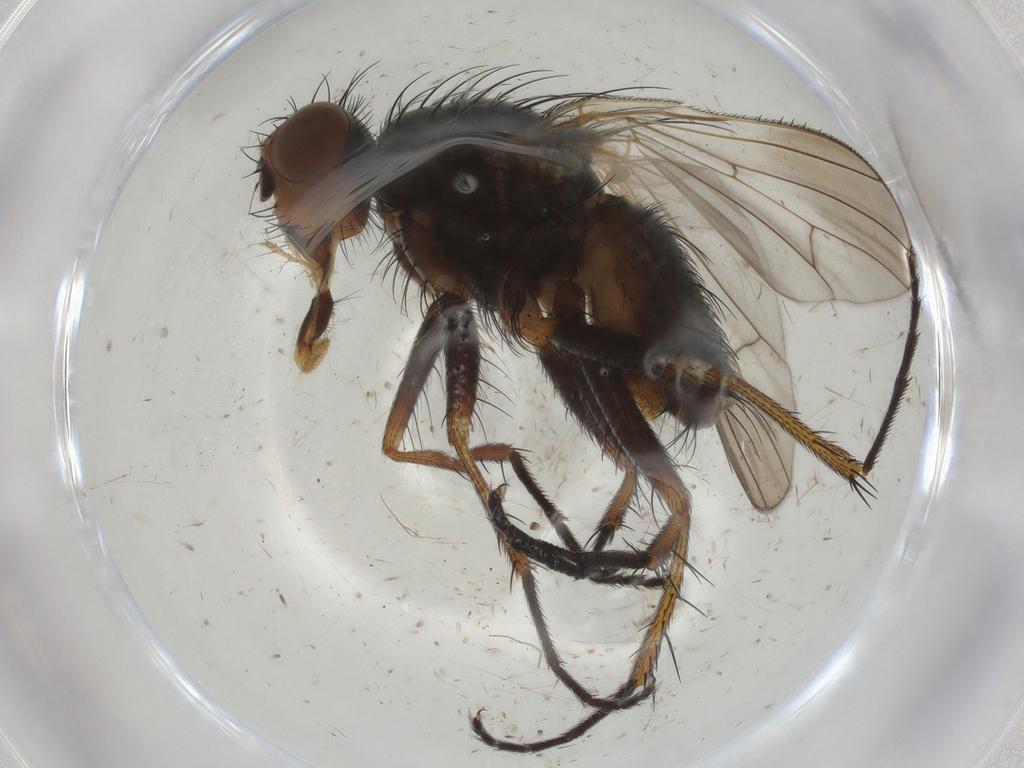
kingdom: Animalia
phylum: Arthropoda
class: Insecta
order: Diptera
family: Anthomyiidae
